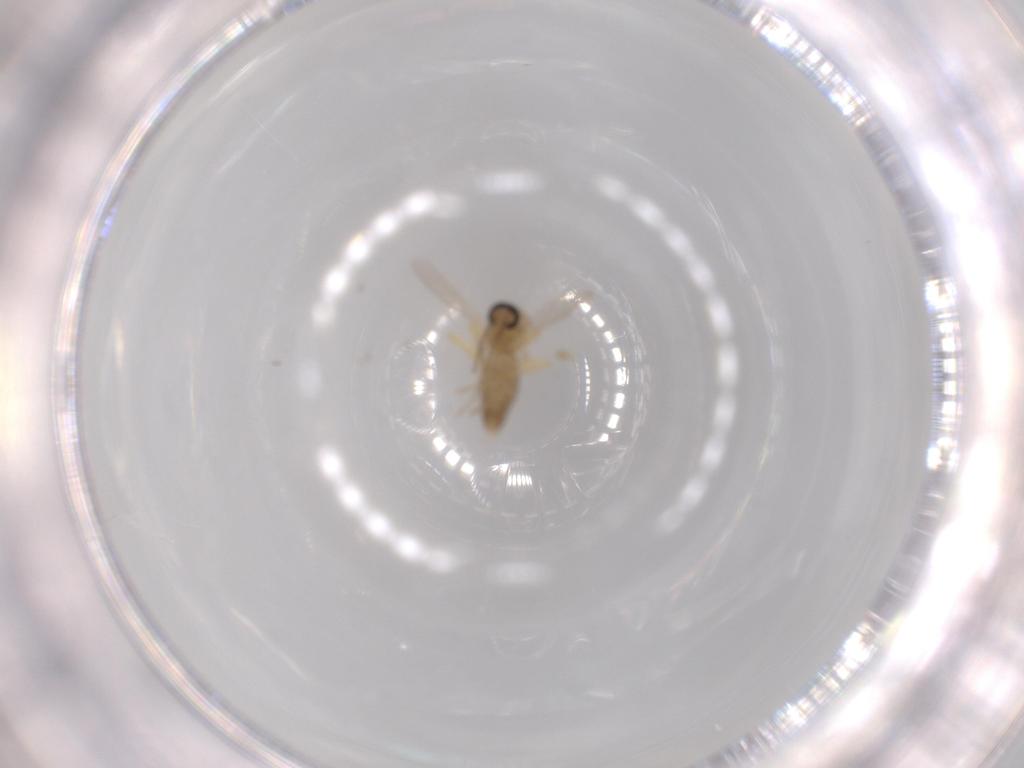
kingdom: Animalia
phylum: Arthropoda
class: Insecta
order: Diptera
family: Ceratopogonidae
